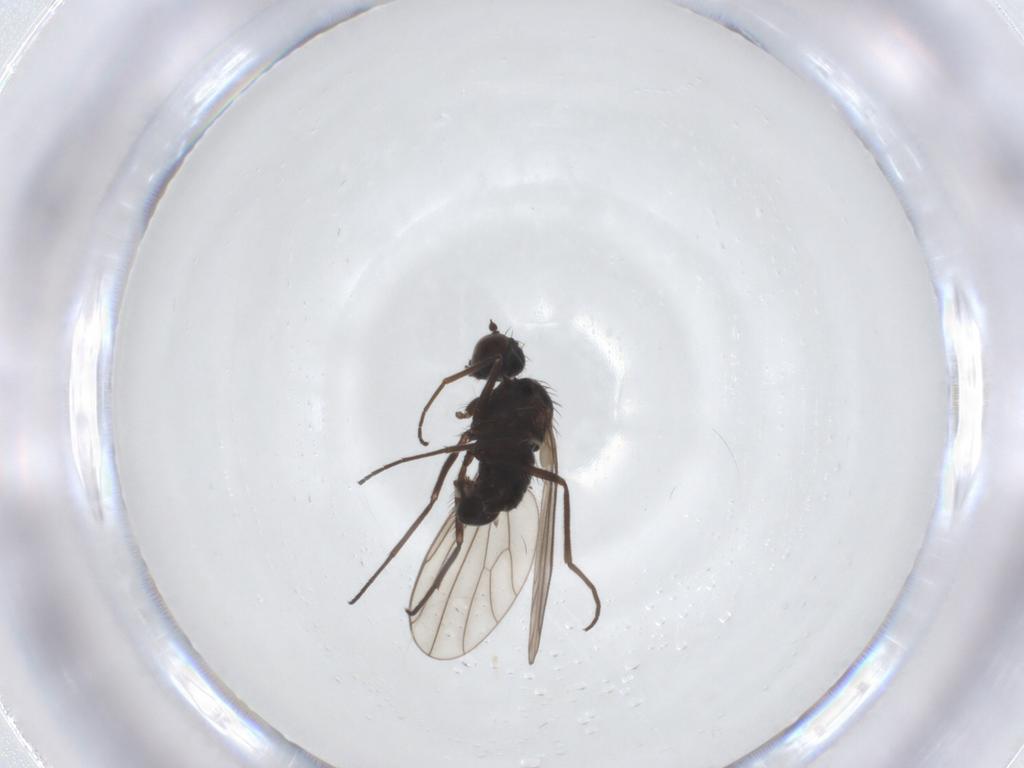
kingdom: Animalia
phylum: Arthropoda
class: Insecta
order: Diptera
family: Dolichopodidae
